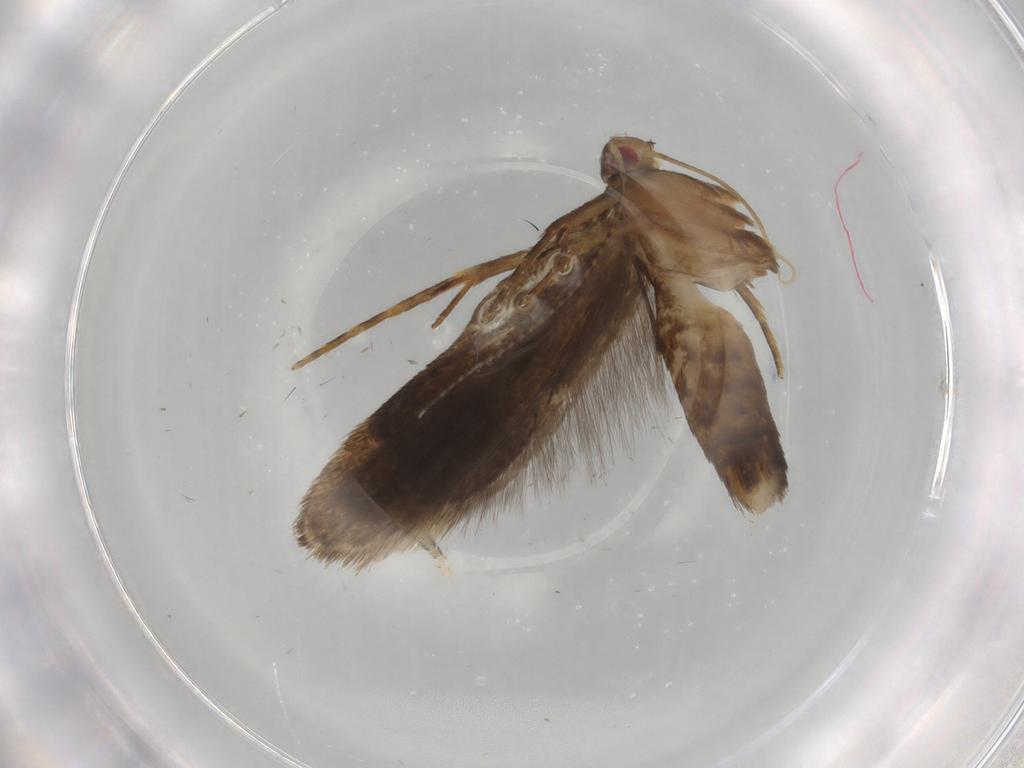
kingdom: Animalia
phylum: Arthropoda
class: Insecta
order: Lepidoptera
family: Gelechiidae
